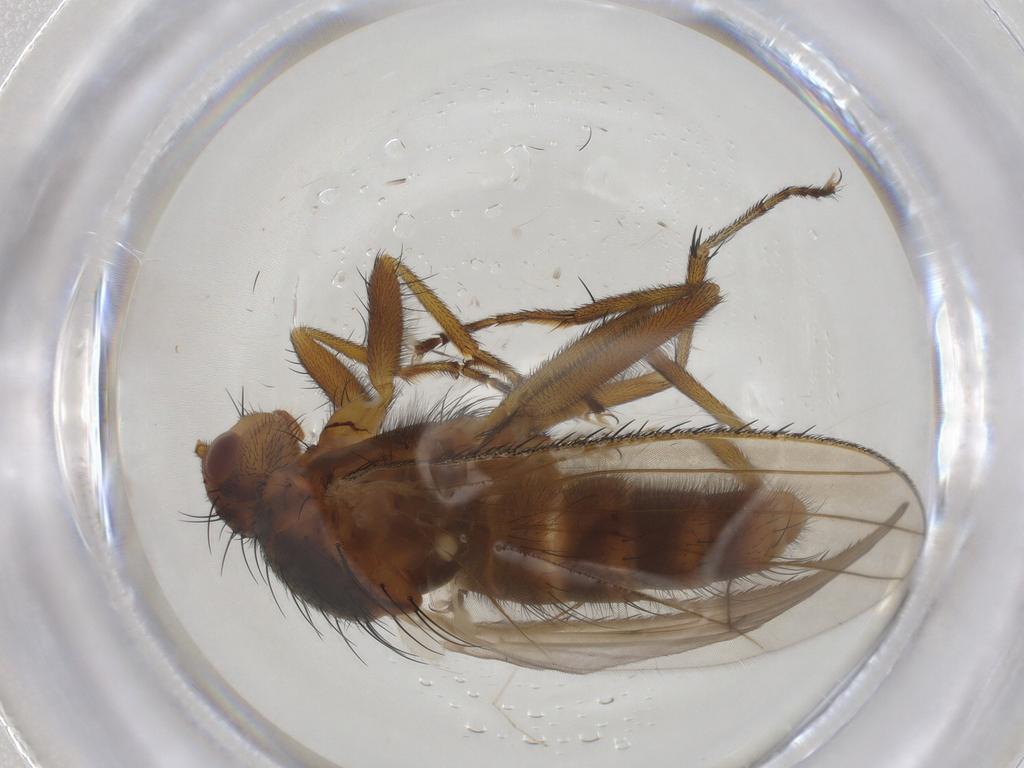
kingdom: Animalia
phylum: Arthropoda
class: Insecta
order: Diptera
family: Heleomyzidae
